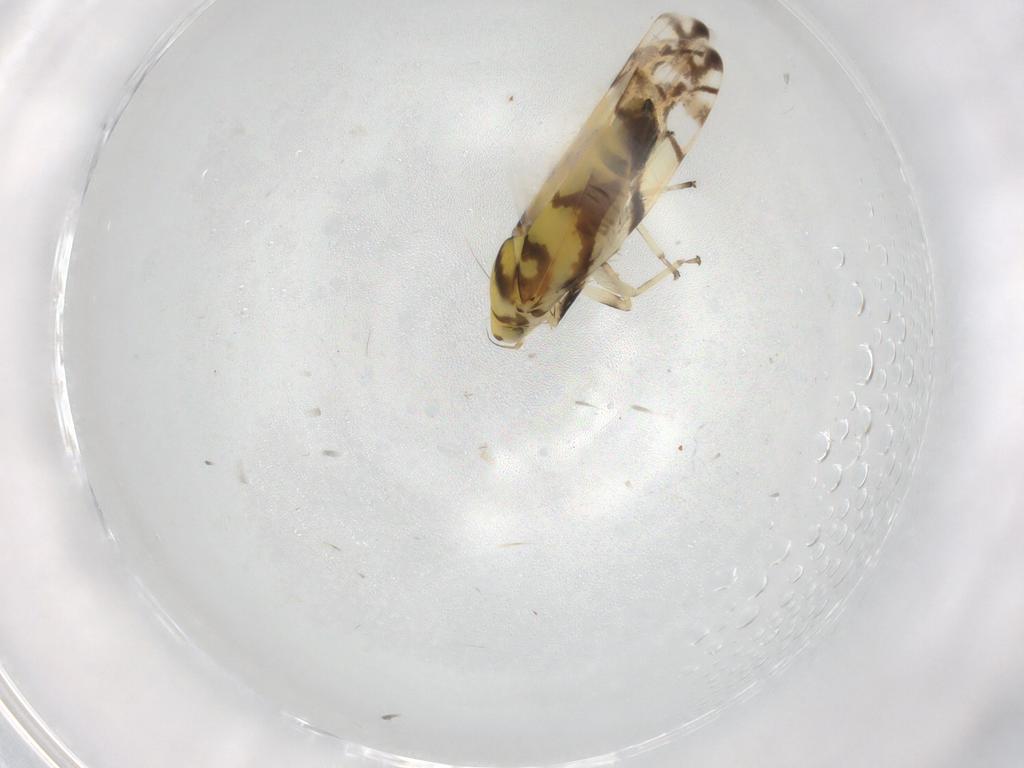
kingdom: Animalia
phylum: Arthropoda
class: Insecta
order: Hemiptera
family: Cicadellidae
